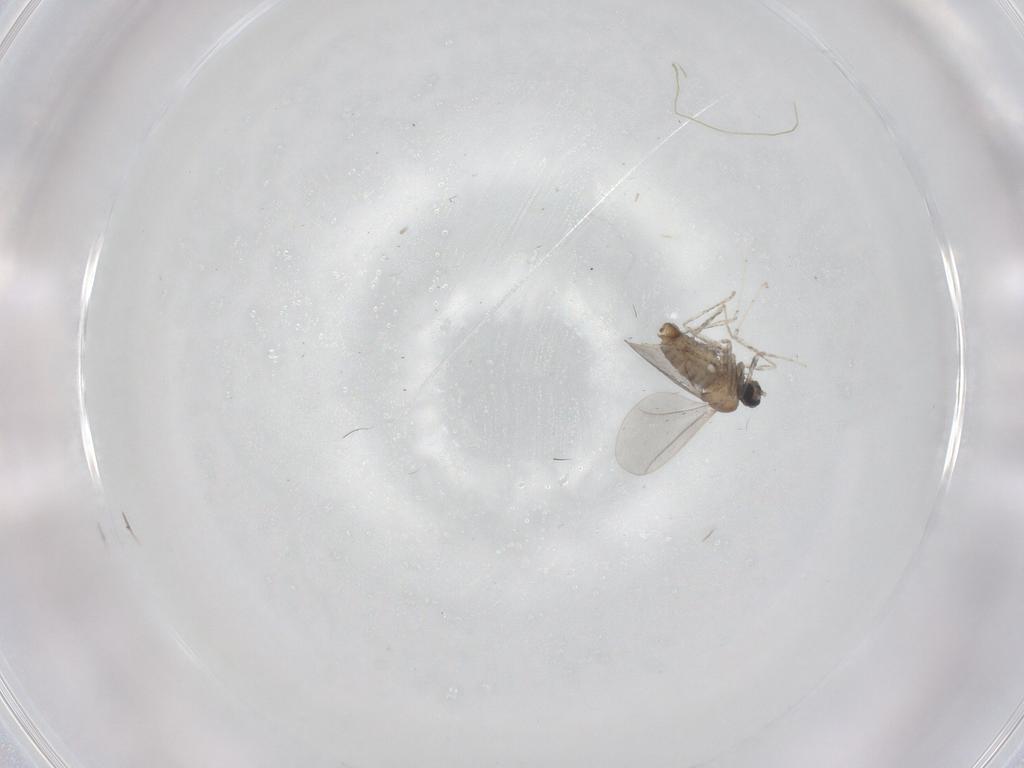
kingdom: Animalia
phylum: Arthropoda
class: Insecta
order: Diptera
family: Cecidomyiidae
